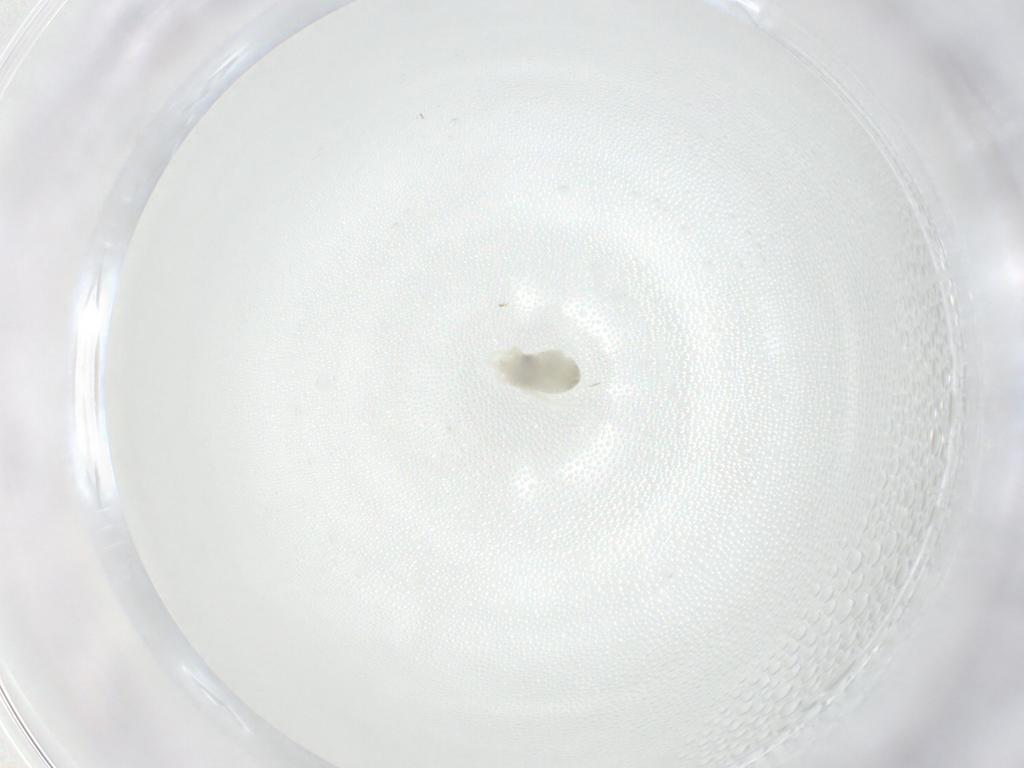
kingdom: Animalia
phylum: Arthropoda
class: Arachnida
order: Trombidiformes
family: Anystidae
